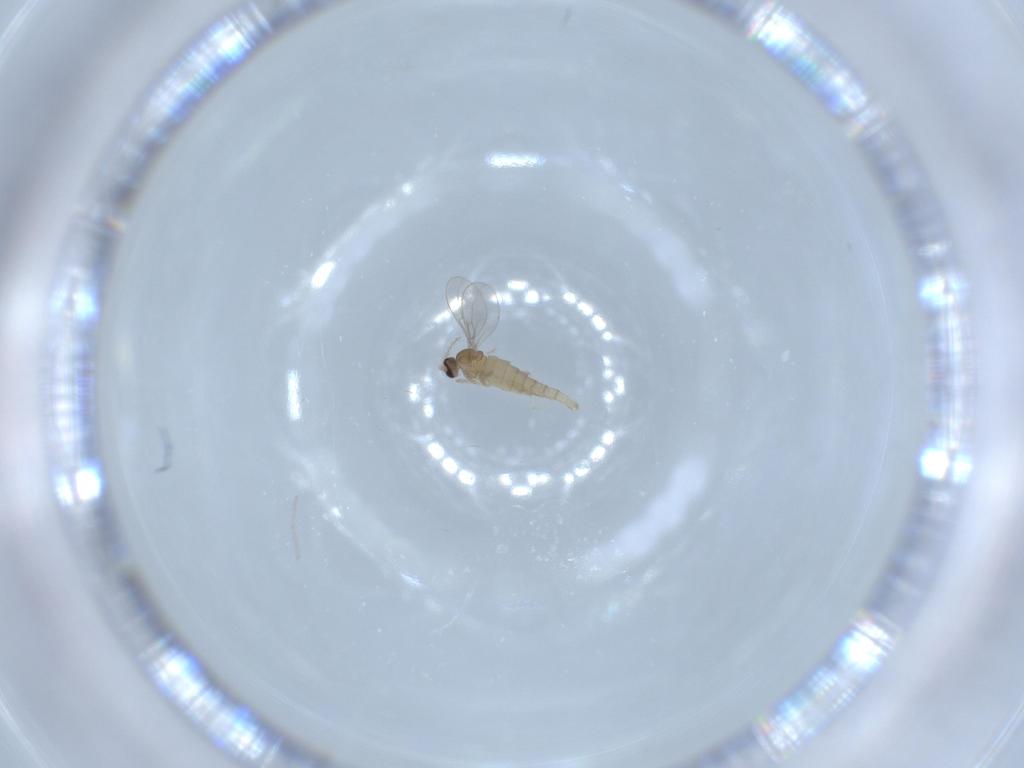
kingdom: Animalia
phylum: Arthropoda
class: Insecta
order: Diptera
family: Cecidomyiidae
